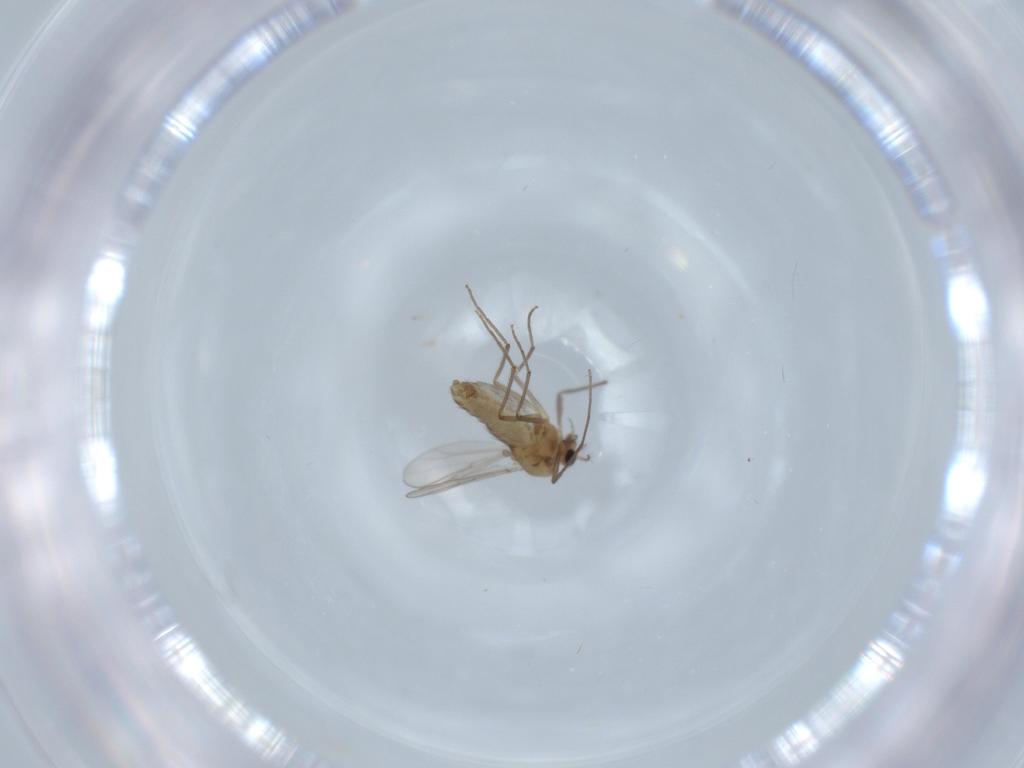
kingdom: Animalia
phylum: Arthropoda
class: Insecta
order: Diptera
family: Chironomidae
